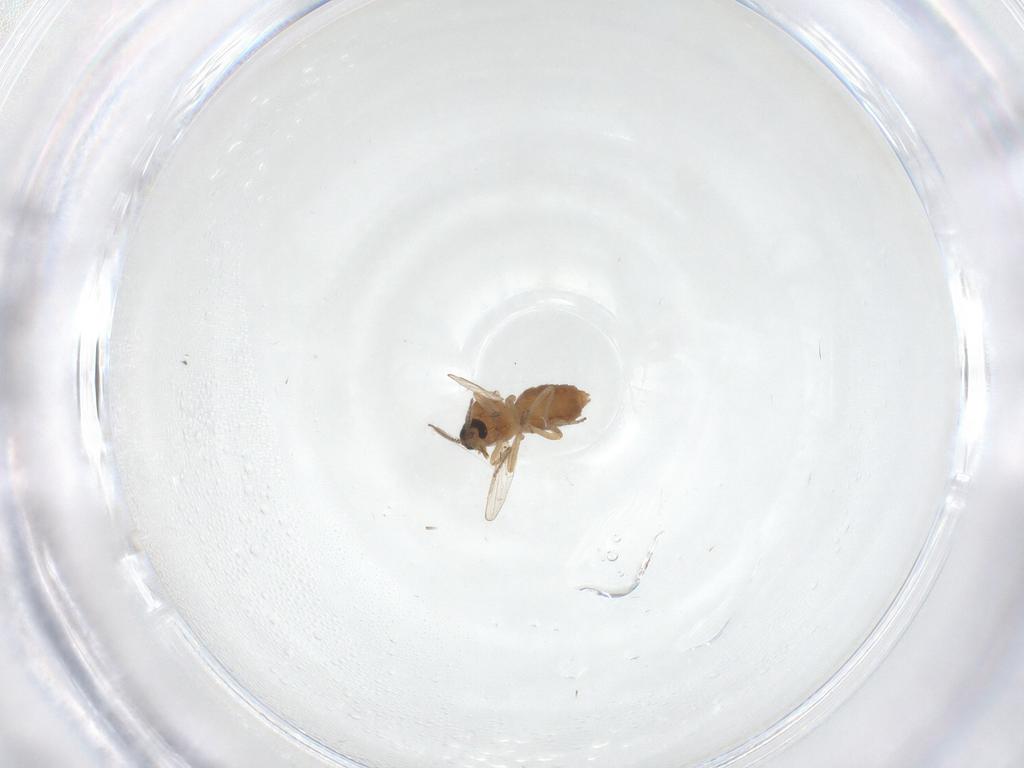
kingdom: Animalia
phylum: Arthropoda
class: Insecta
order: Diptera
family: Ceratopogonidae
